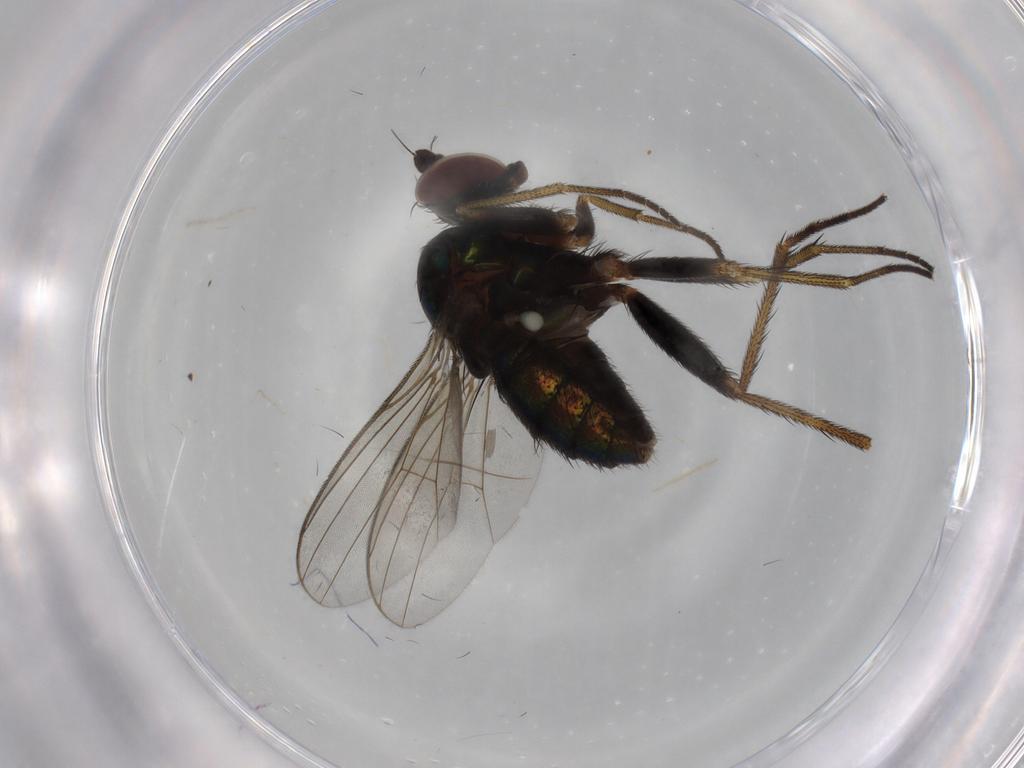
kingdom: Animalia
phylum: Arthropoda
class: Insecta
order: Diptera
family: Dolichopodidae
